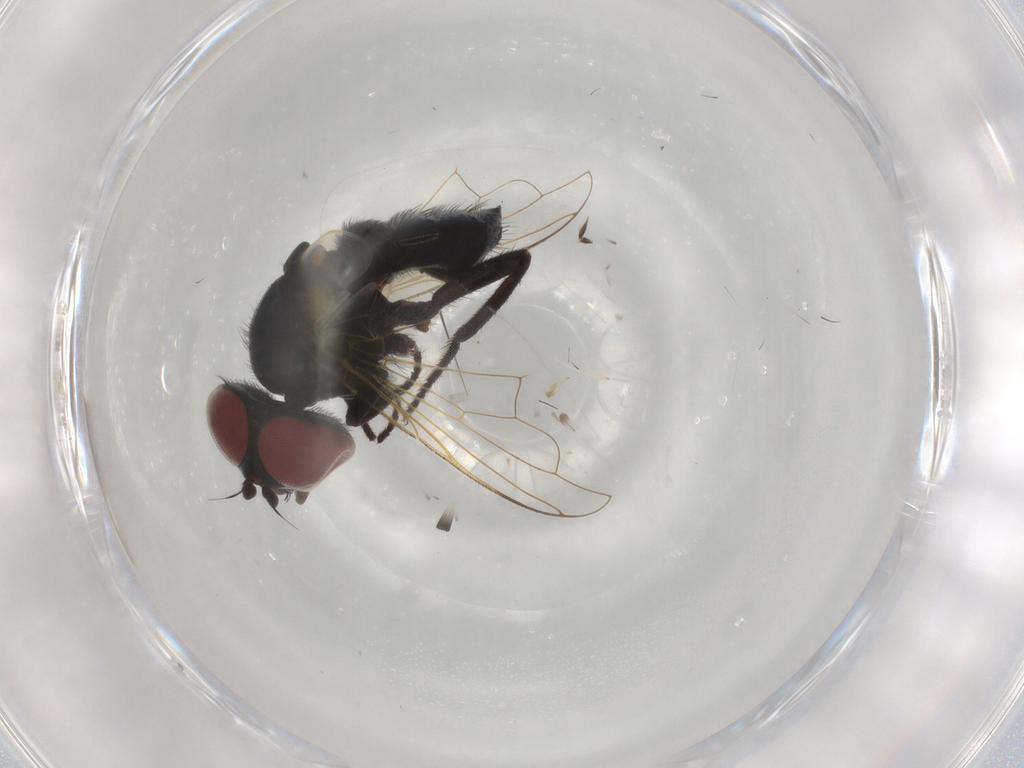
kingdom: Animalia
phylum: Arthropoda
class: Insecta
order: Diptera
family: Tachinidae
